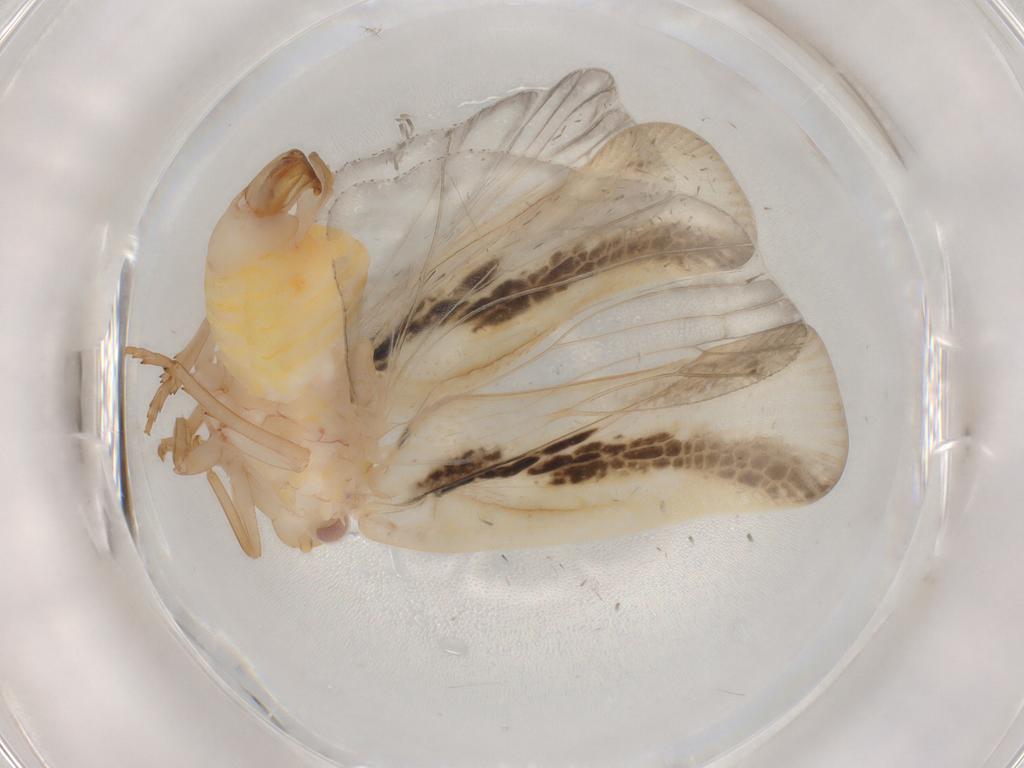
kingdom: Animalia
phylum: Arthropoda
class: Insecta
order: Hemiptera
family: Flatidae
